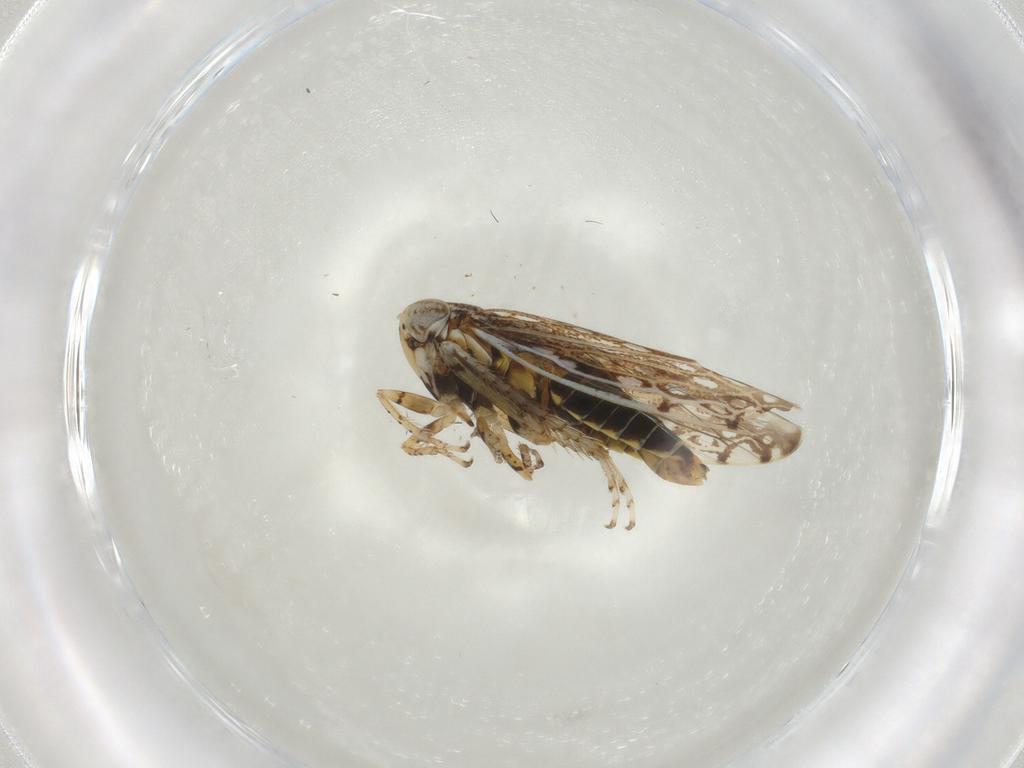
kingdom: Animalia
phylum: Arthropoda
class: Insecta
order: Hemiptera
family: Cicadellidae
